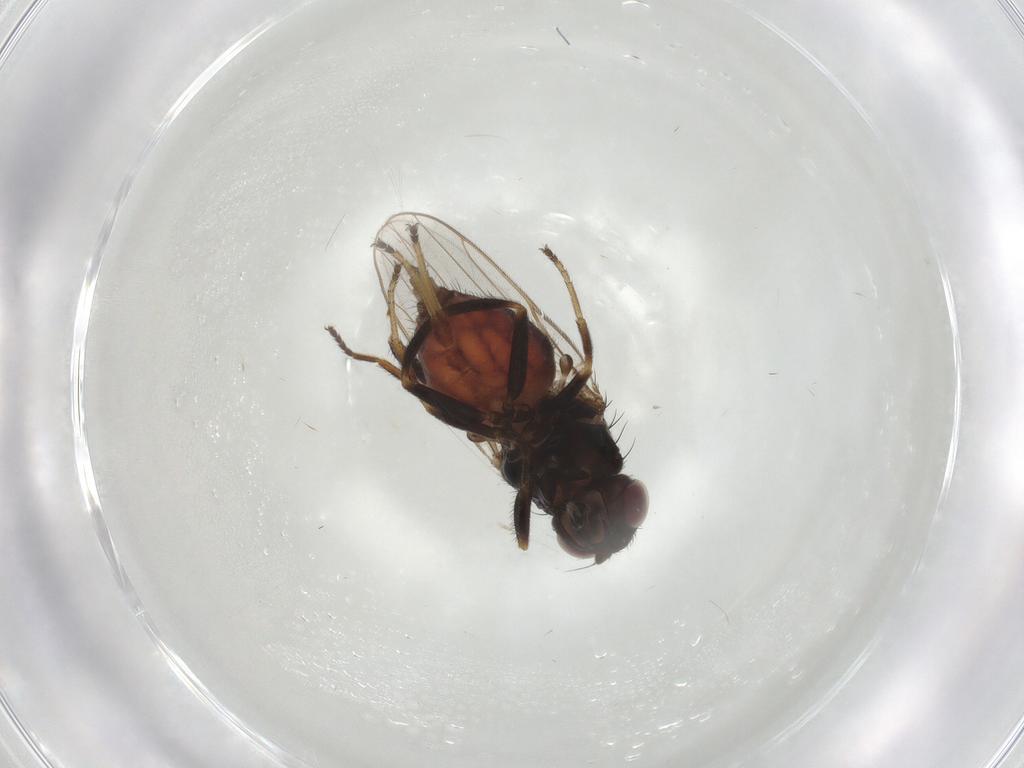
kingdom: Animalia
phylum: Arthropoda
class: Insecta
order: Diptera
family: Chloropidae
